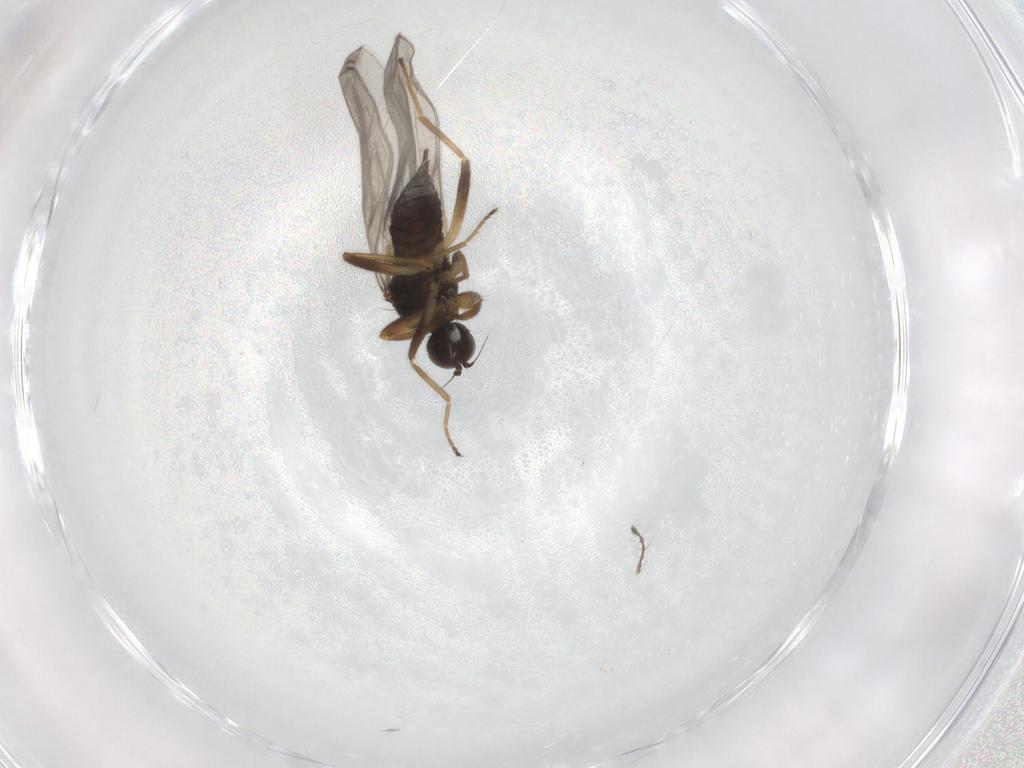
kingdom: Animalia
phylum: Arthropoda
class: Insecta
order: Diptera
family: Hybotidae
